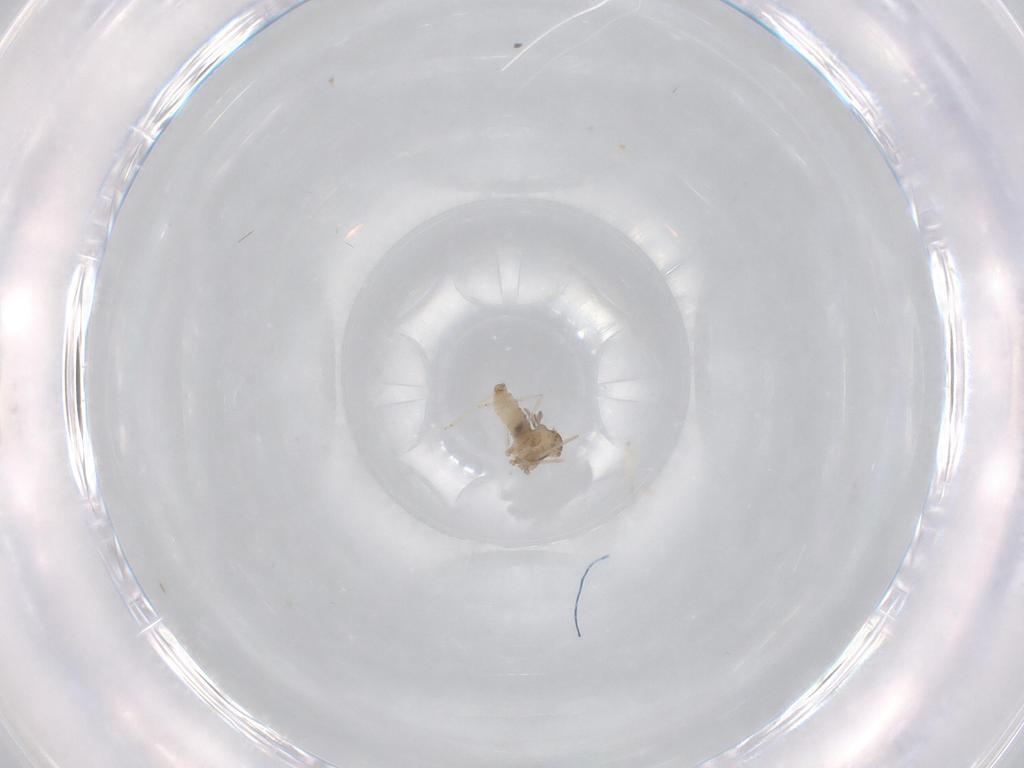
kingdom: Animalia
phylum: Arthropoda
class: Insecta
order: Diptera
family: Cecidomyiidae
